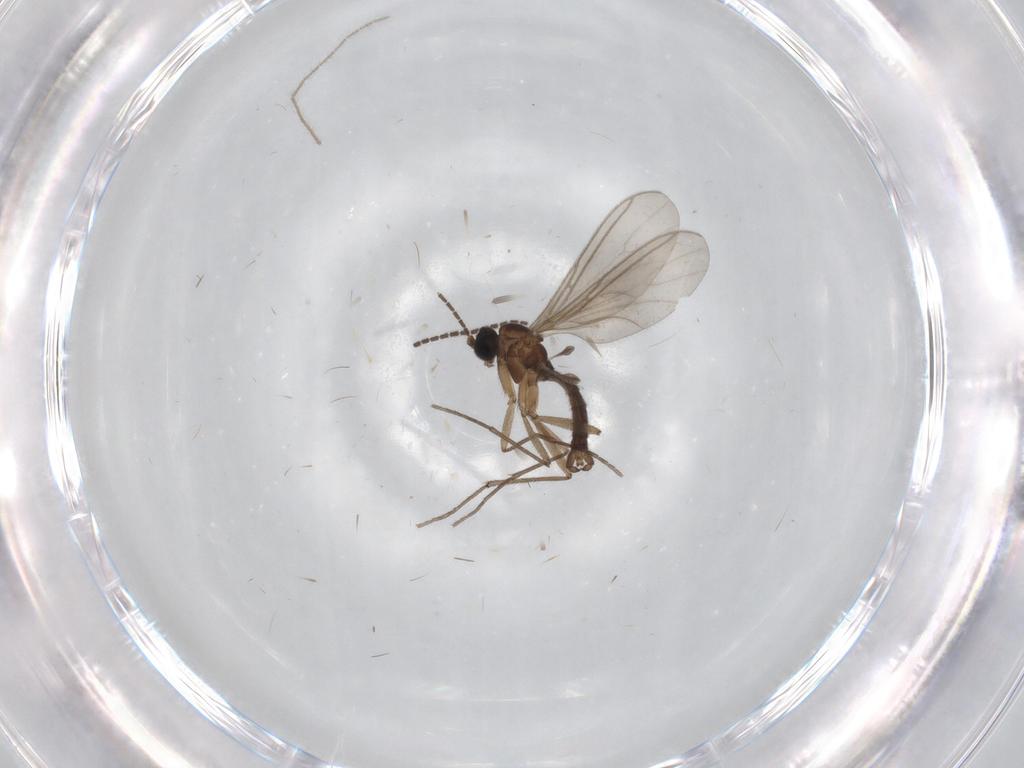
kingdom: Animalia
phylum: Arthropoda
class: Insecta
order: Diptera
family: Sciaridae
